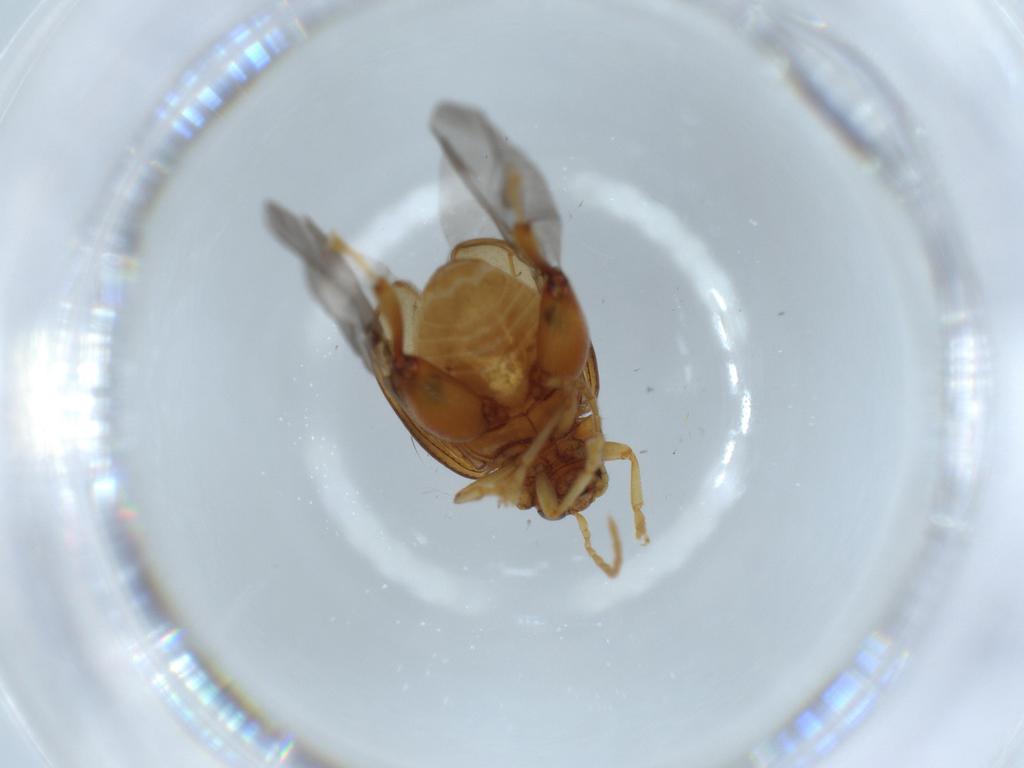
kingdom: Animalia
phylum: Arthropoda
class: Insecta
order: Coleoptera
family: Chrysomelidae
